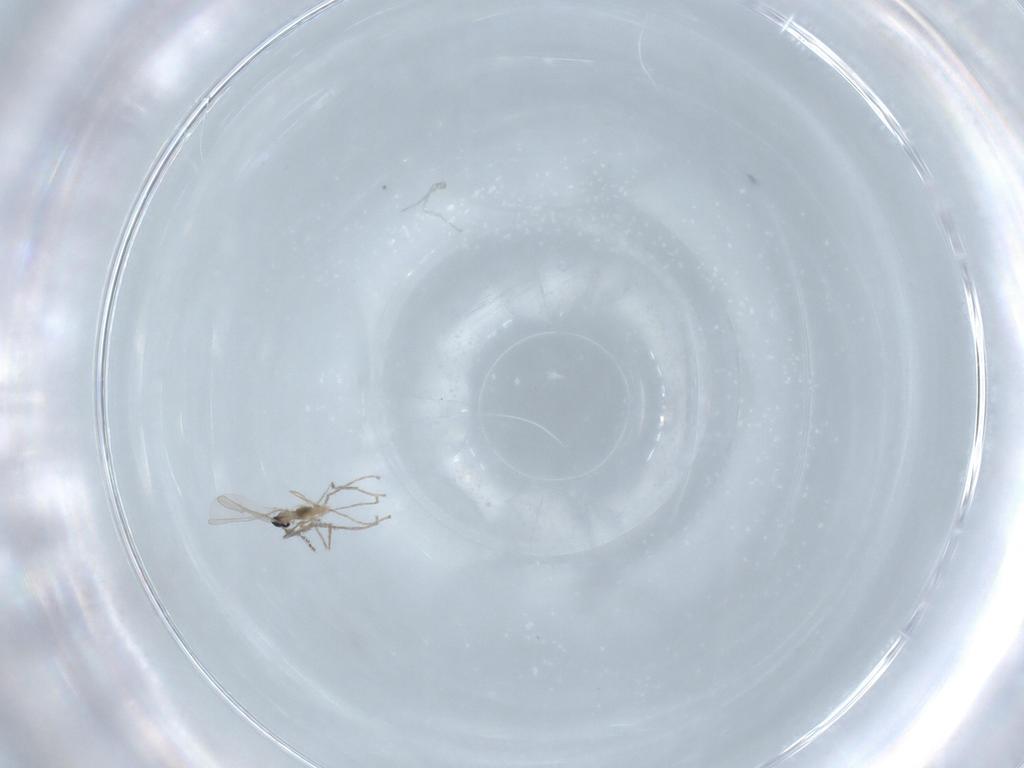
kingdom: Animalia
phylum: Arthropoda
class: Insecta
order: Diptera
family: Cecidomyiidae
